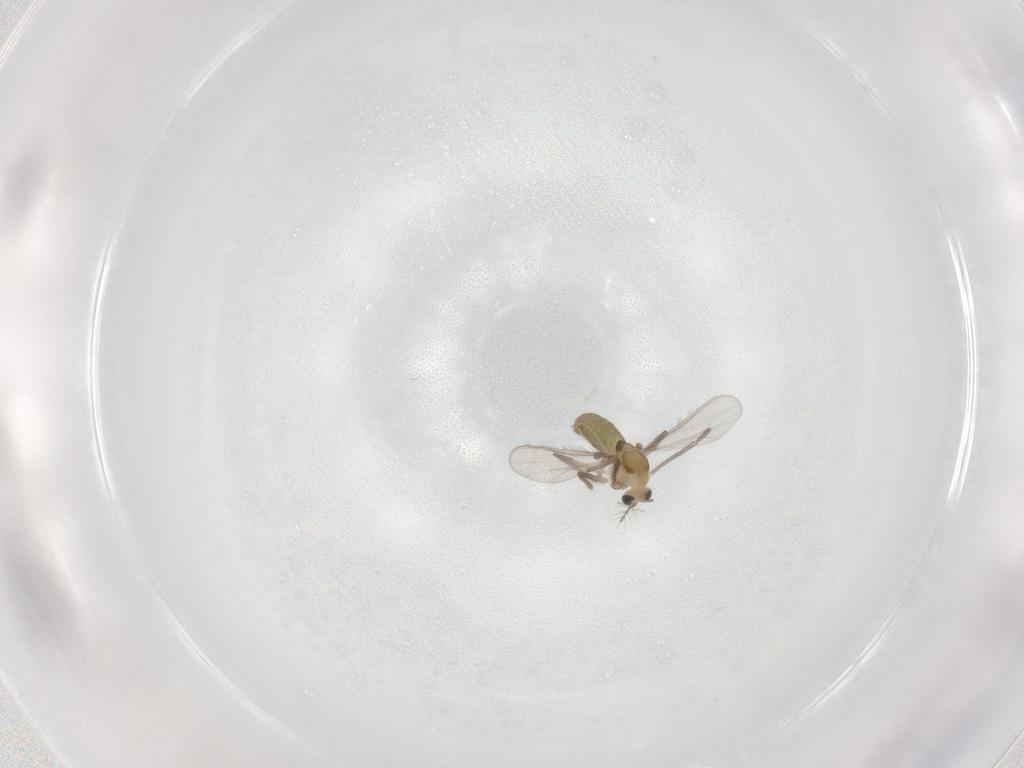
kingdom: Animalia
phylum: Arthropoda
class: Insecta
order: Diptera
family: Chironomidae
